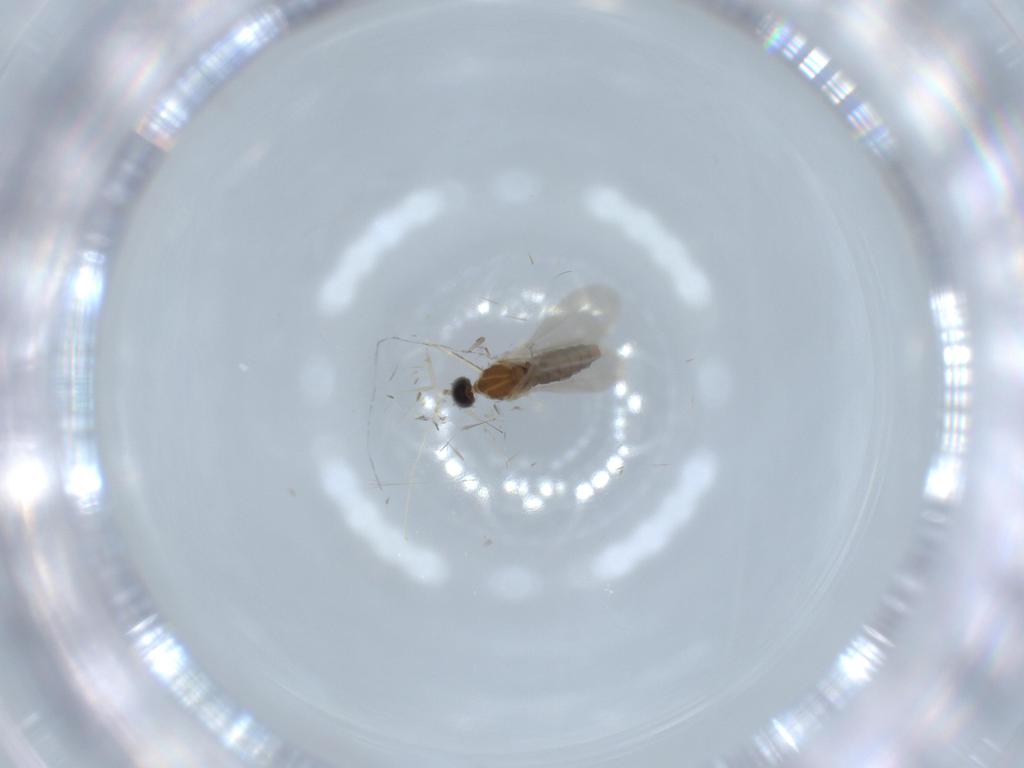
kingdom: Animalia
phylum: Arthropoda
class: Insecta
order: Diptera
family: Cecidomyiidae
